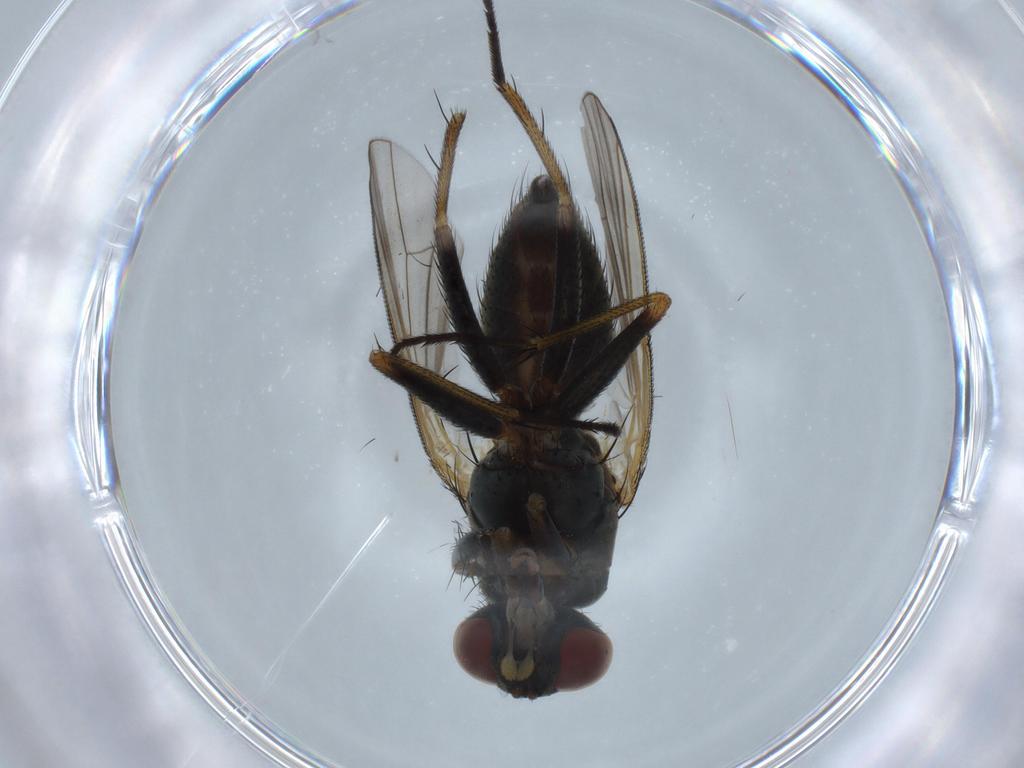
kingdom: Animalia
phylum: Arthropoda
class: Insecta
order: Diptera
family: Muscidae
